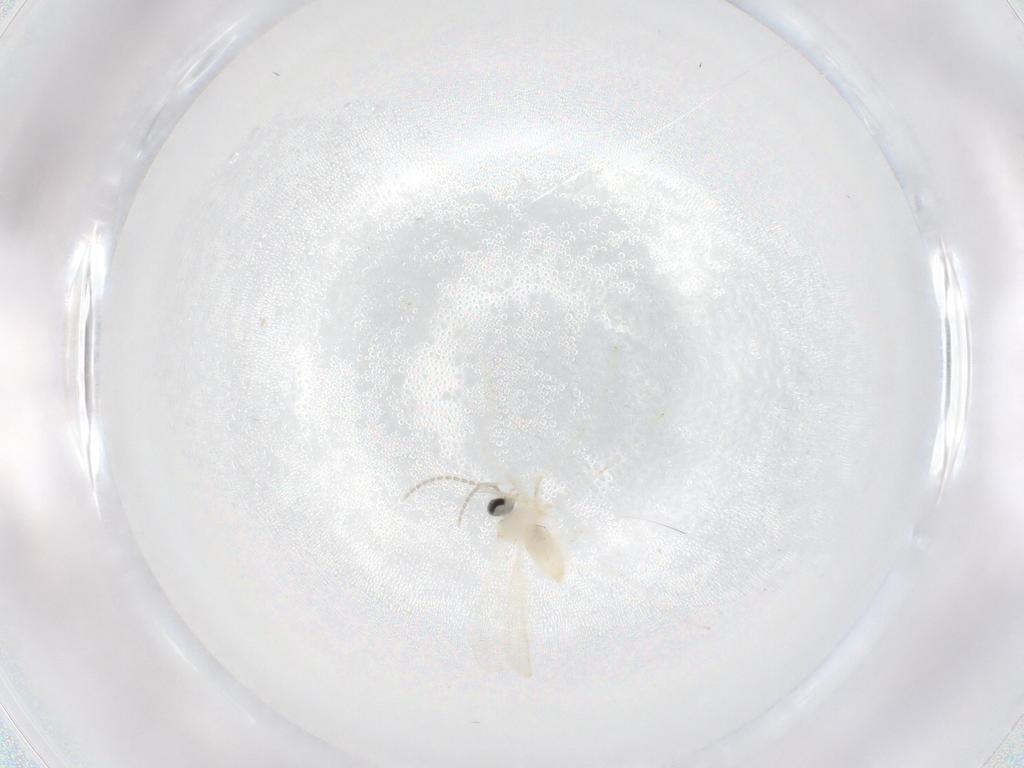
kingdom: Animalia
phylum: Arthropoda
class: Insecta
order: Diptera
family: Cecidomyiidae
